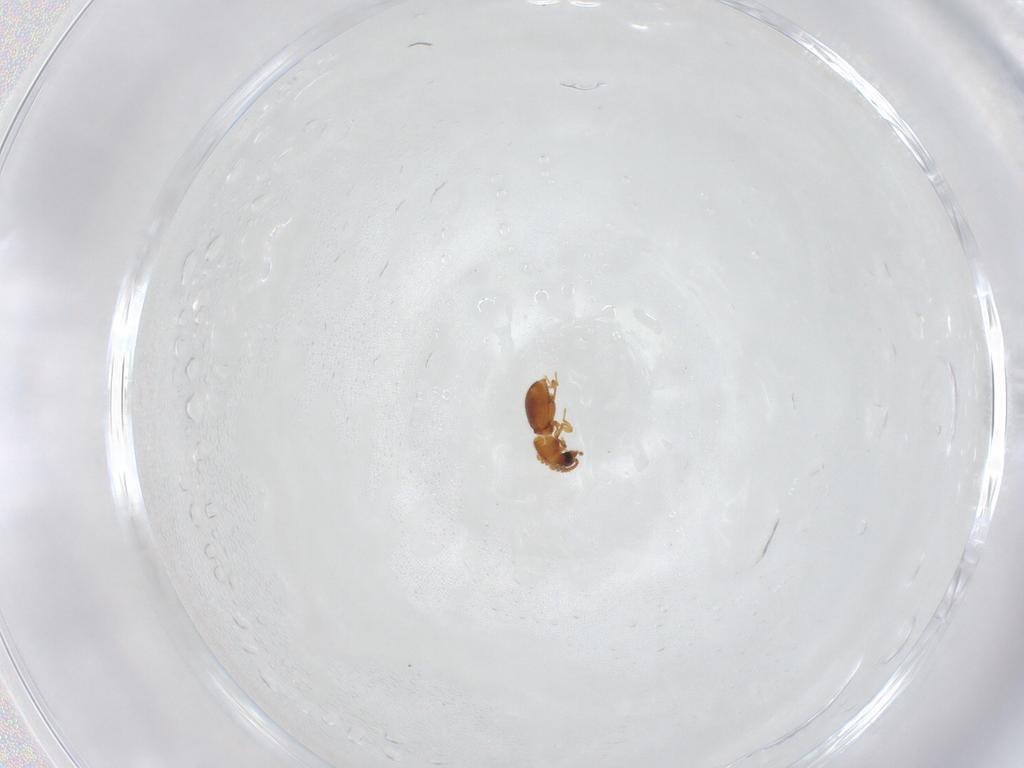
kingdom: Animalia
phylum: Arthropoda
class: Insecta
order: Coleoptera
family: Staphylinidae
